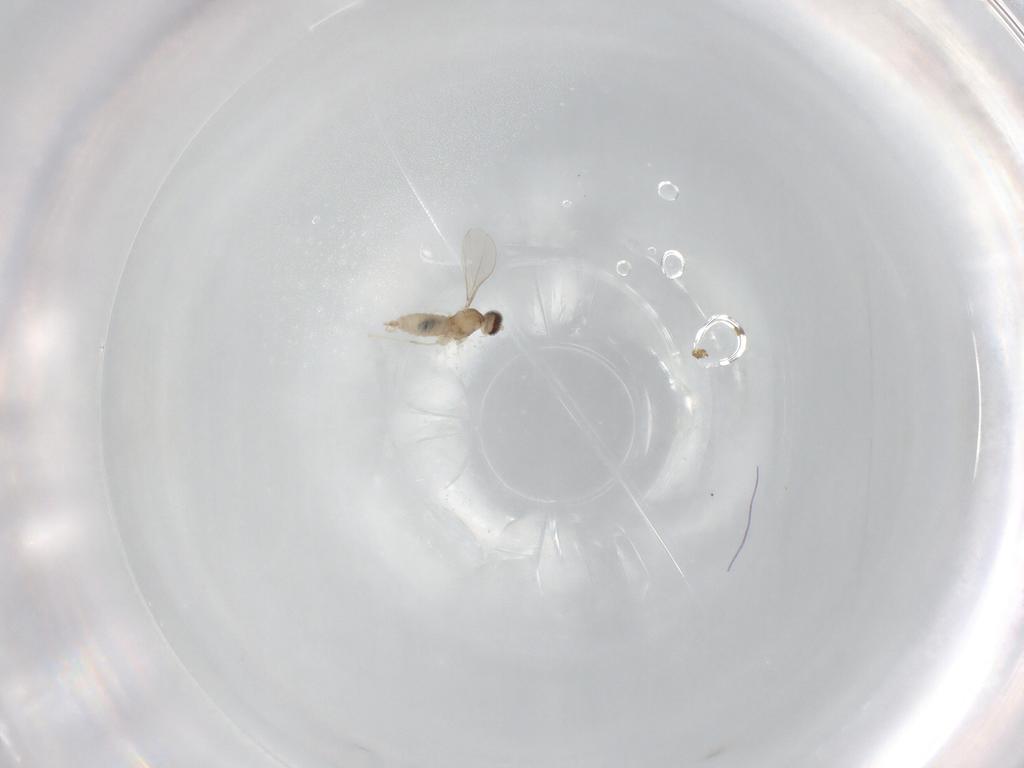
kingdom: Animalia
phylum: Arthropoda
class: Insecta
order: Diptera
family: Cecidomyiidae
